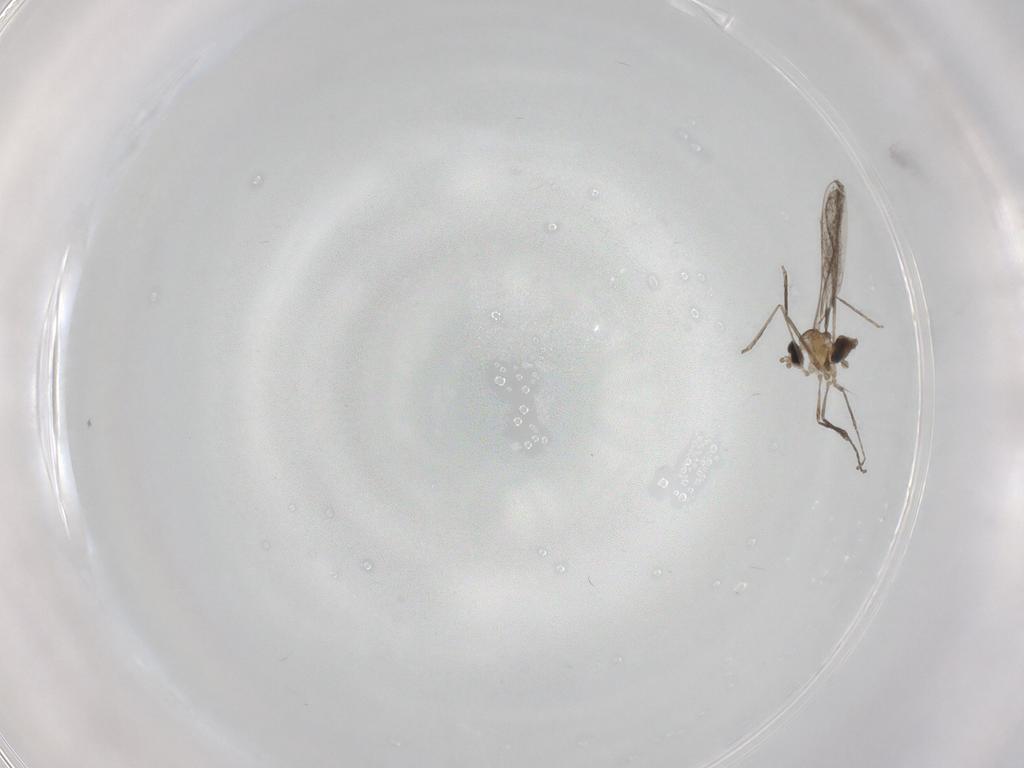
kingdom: Animalia
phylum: Arthropoda
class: Insecta
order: Diptera
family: Cecidomyiidae
